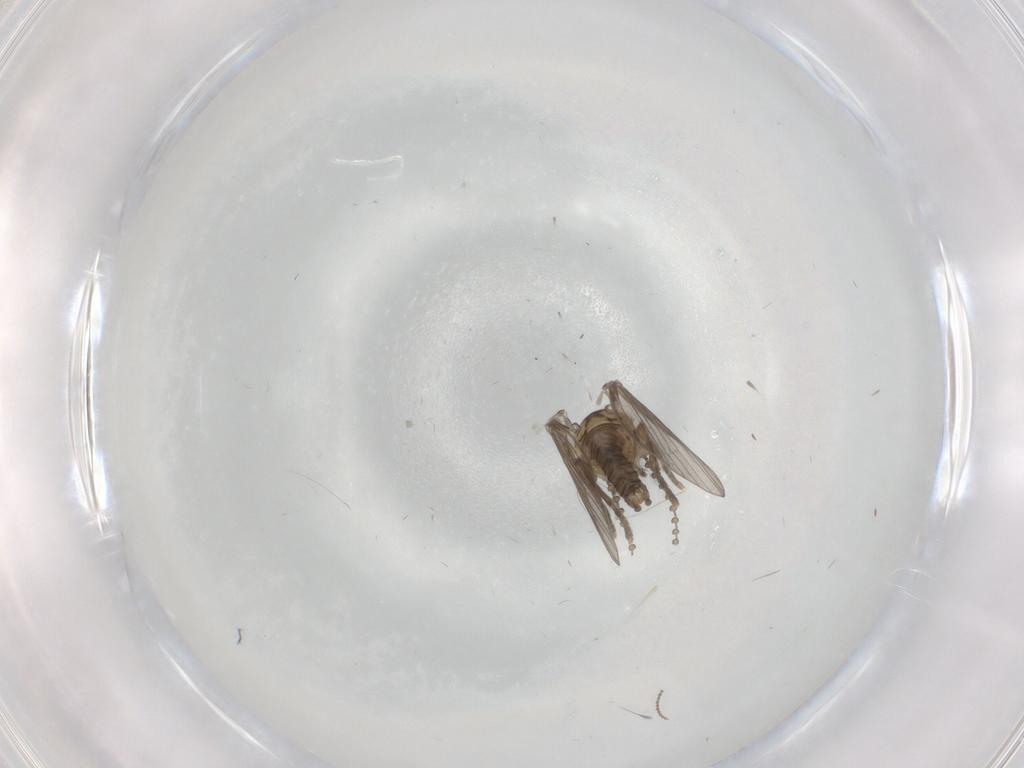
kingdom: Animalia
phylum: Arthropoda
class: Insecta
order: Diptera
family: Psychodidae
